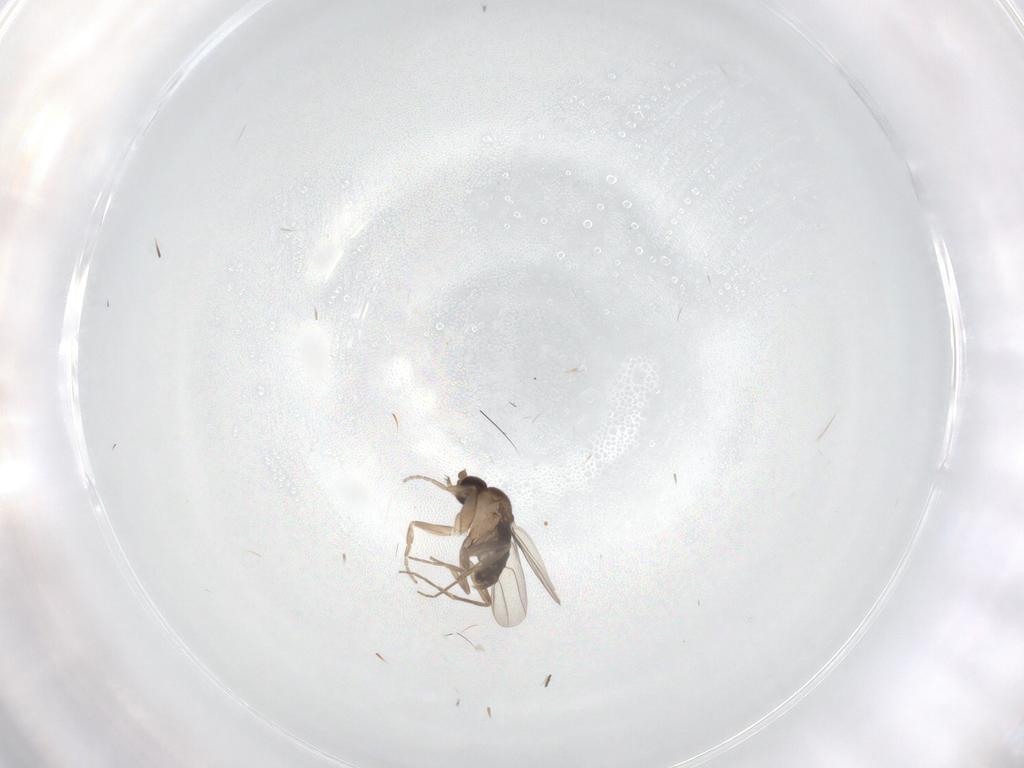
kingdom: Animalia
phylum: Arthropoda
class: Insecta
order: Diptera
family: Phoridae
